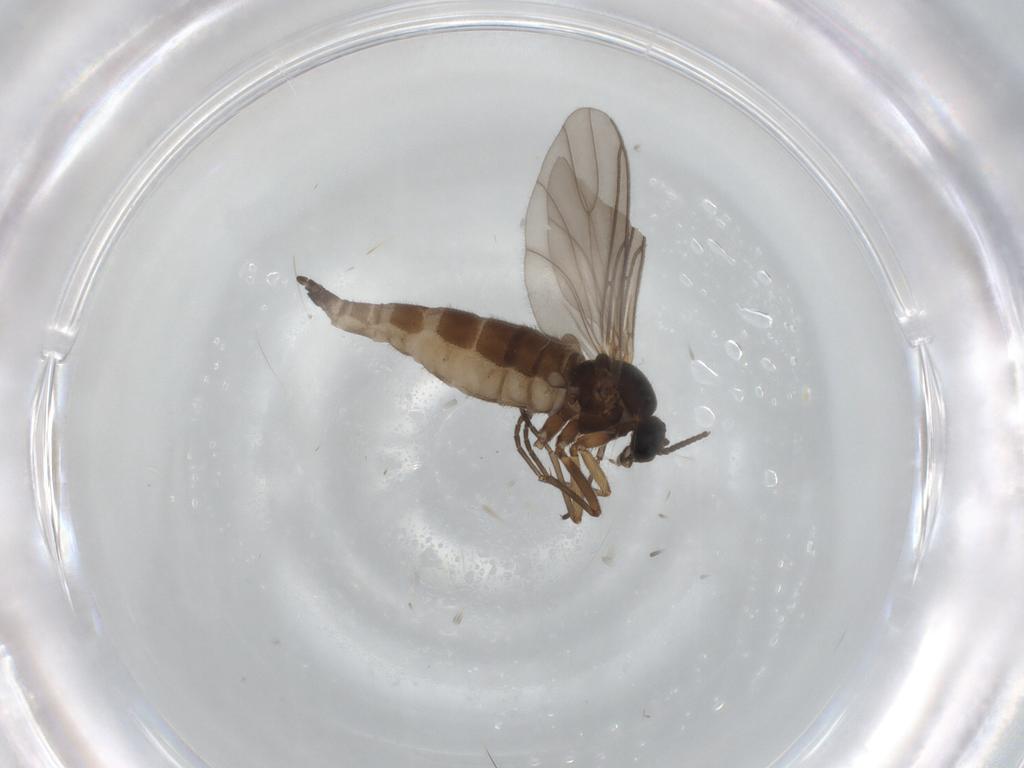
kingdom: Animalia
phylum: Arthropoda
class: Insecta
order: Diptera
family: Sciaridae
